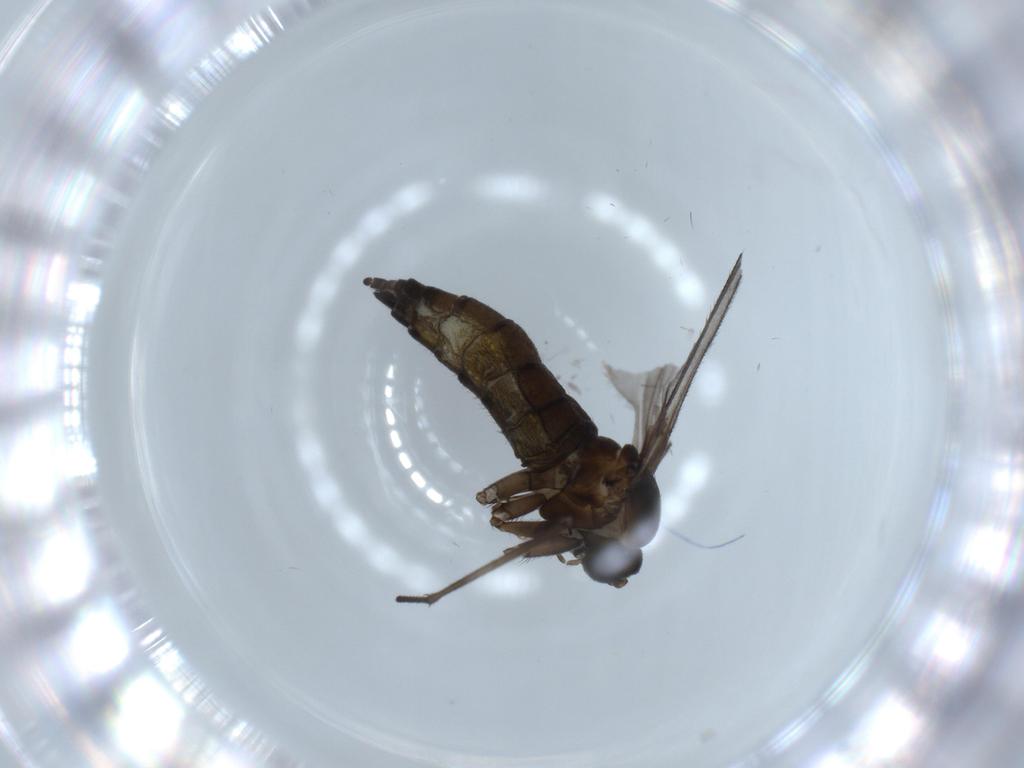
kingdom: Animalia
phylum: Arthropoda
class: Insecta
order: Diptera
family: Sciaridae
